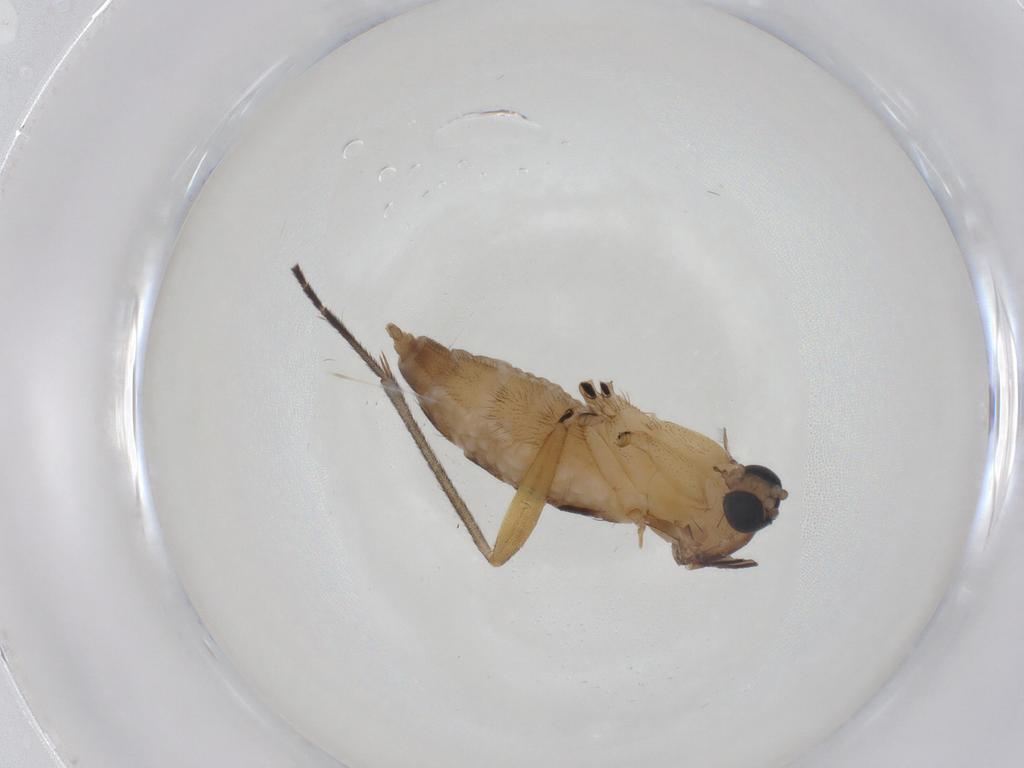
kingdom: Animalia
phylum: Arthropoda
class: Insecta
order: Diptera
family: Sciaridae
